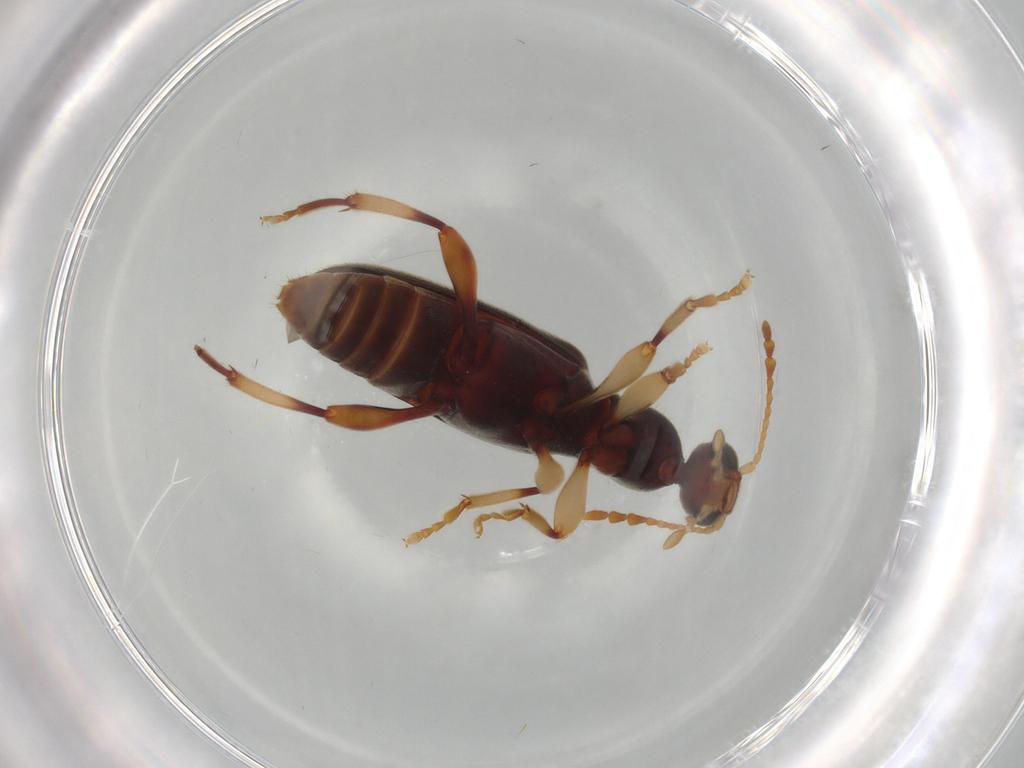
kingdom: Animalia
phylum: Arthropoda
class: Insecta
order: Coleoptera
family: Anthicidae
